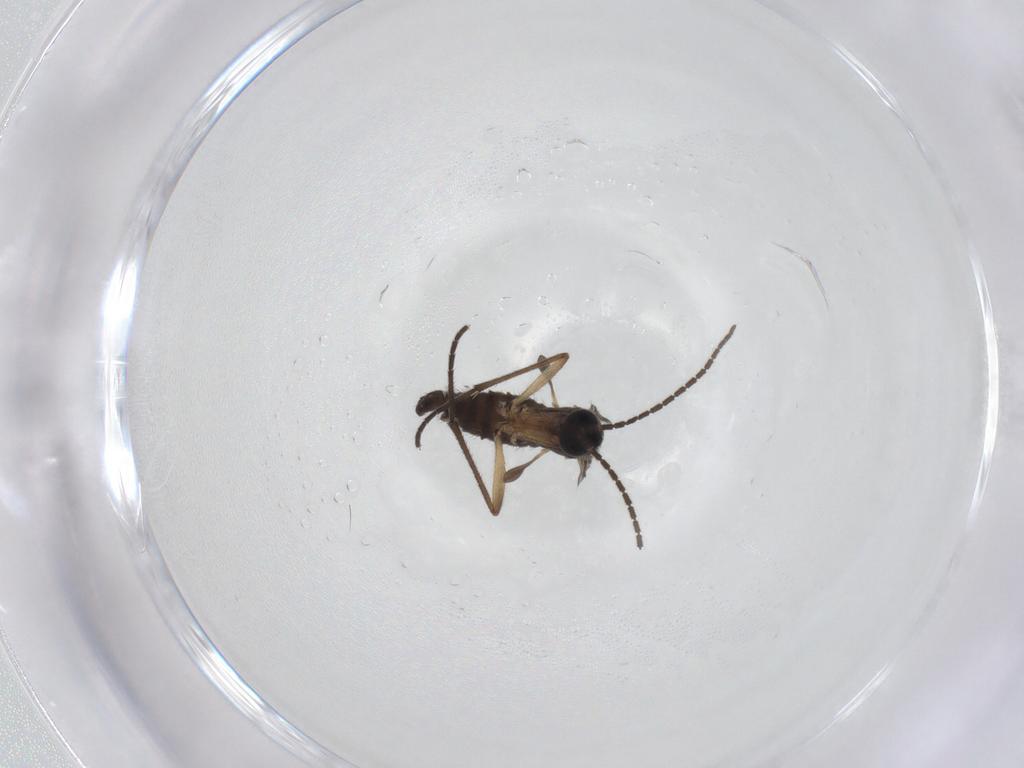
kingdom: Animalia
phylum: Arthropoda
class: Insecta
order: Diptera
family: Sciaridae
